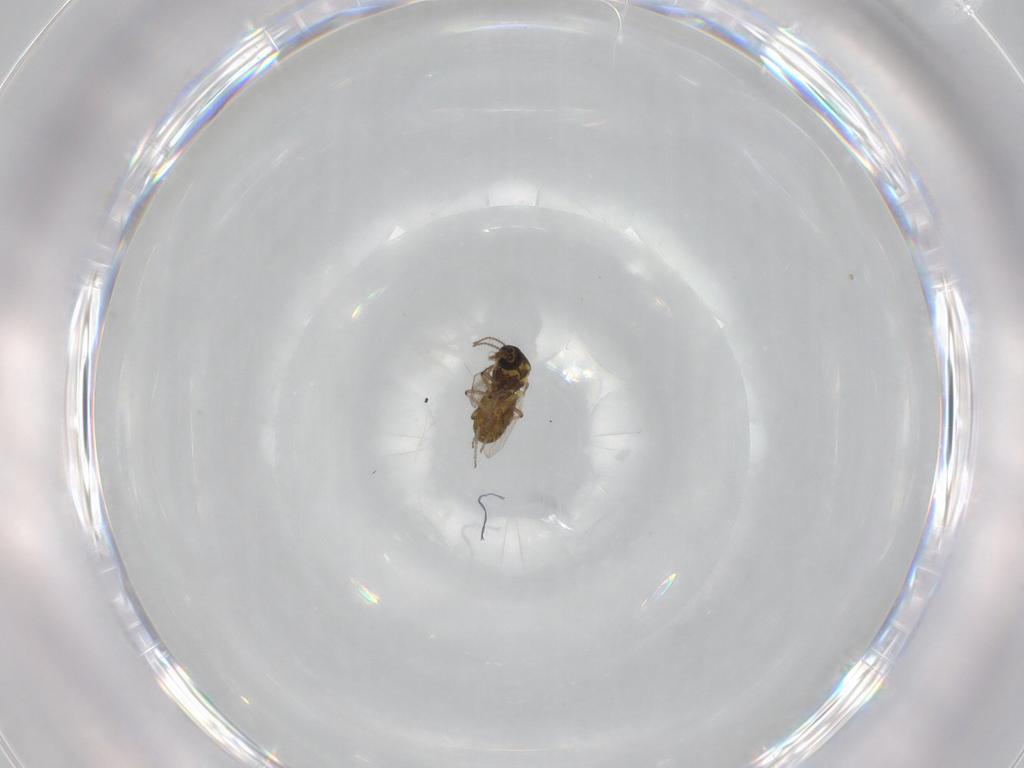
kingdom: Animalia
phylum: Arthropoda
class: Insecta
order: Diptera
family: Ceratopogonidae
